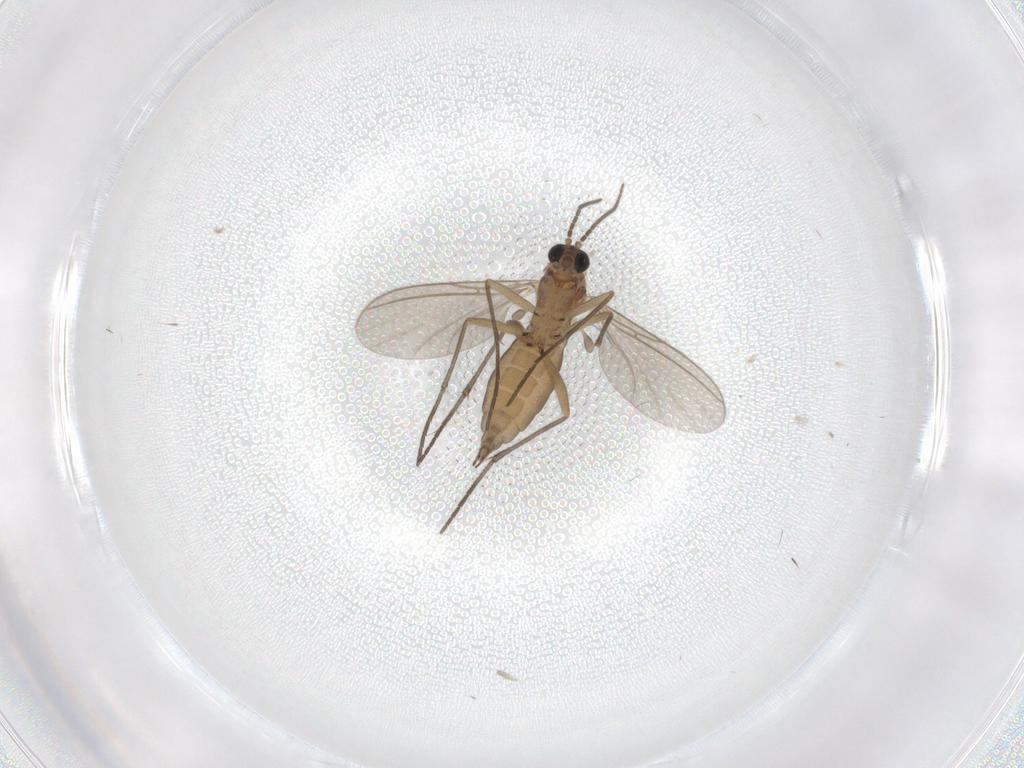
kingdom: Animalia
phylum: Arthropoda
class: Insecta
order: Diptera
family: Sciaridae
